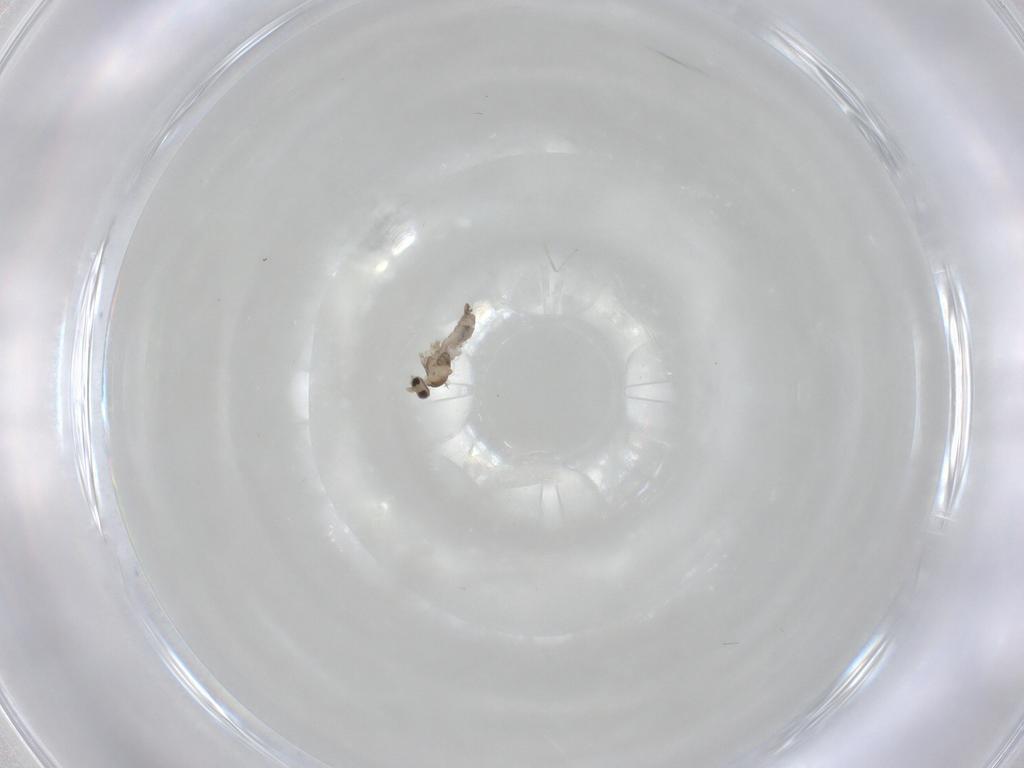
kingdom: Animalia
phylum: Arthropoda
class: Insecta
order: Diptera
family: Cecidomyiidae
